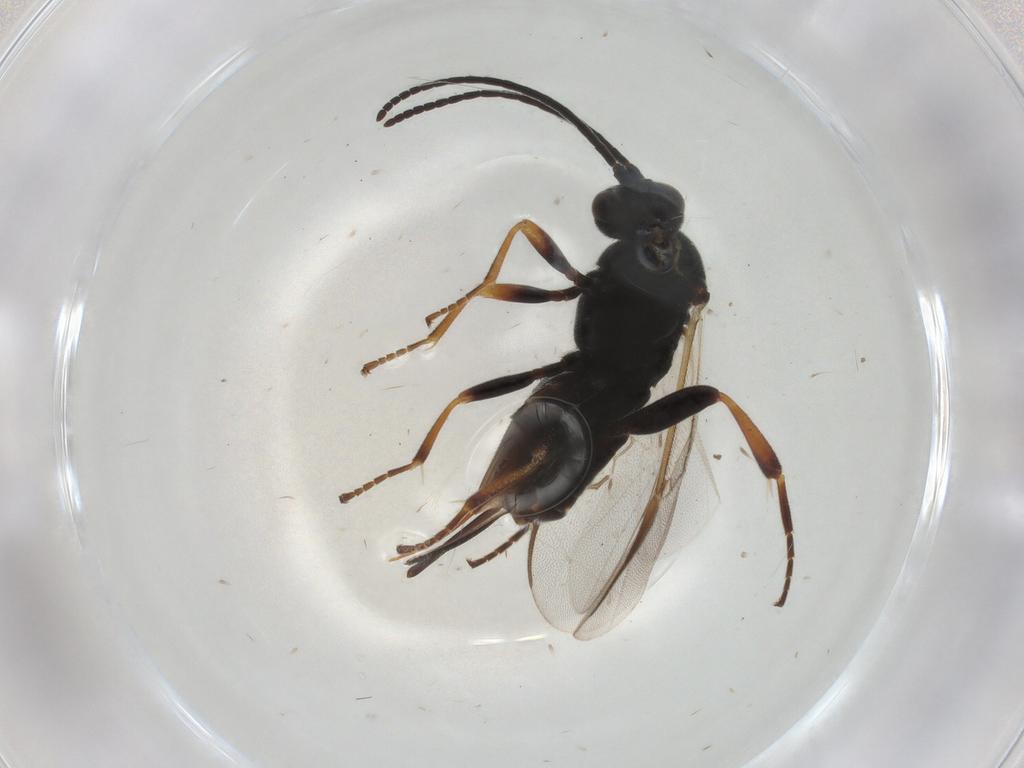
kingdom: Animalia
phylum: Arthropoda
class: Insecta
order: Hymenoptera
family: Braconidae
